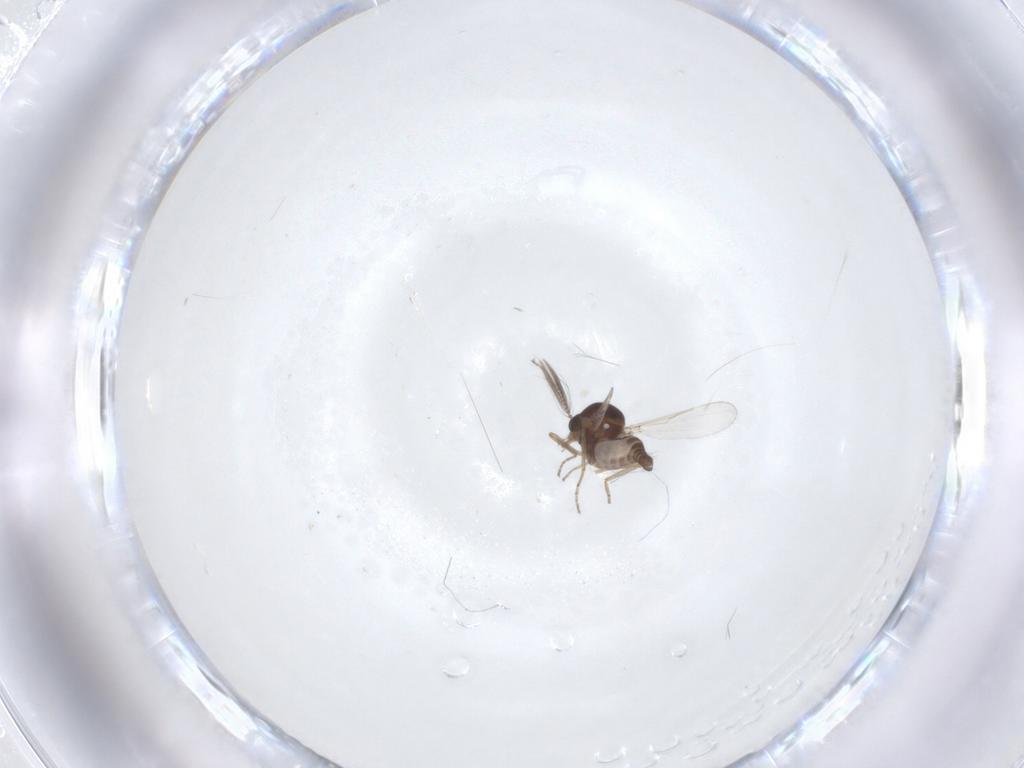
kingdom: Animalia
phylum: Arthropoda
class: Insecta
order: Diptera
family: Ceratopogonidae
